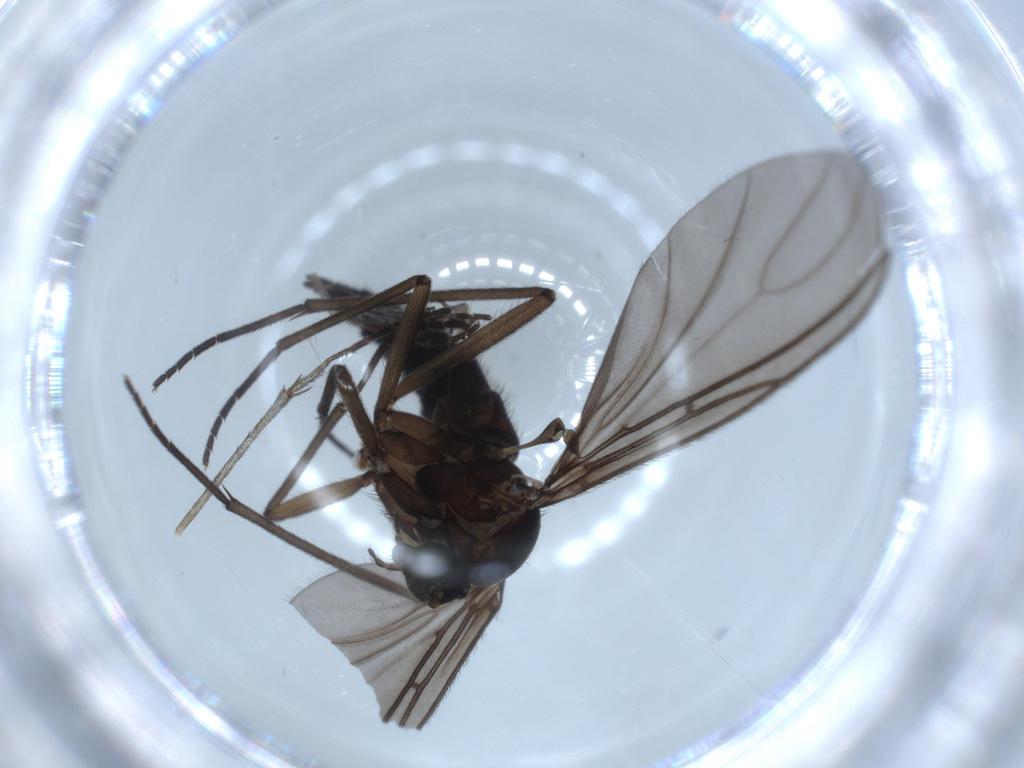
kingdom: Animalia
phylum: Arthropoda
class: Insecta
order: Diptera
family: Sciaridae
